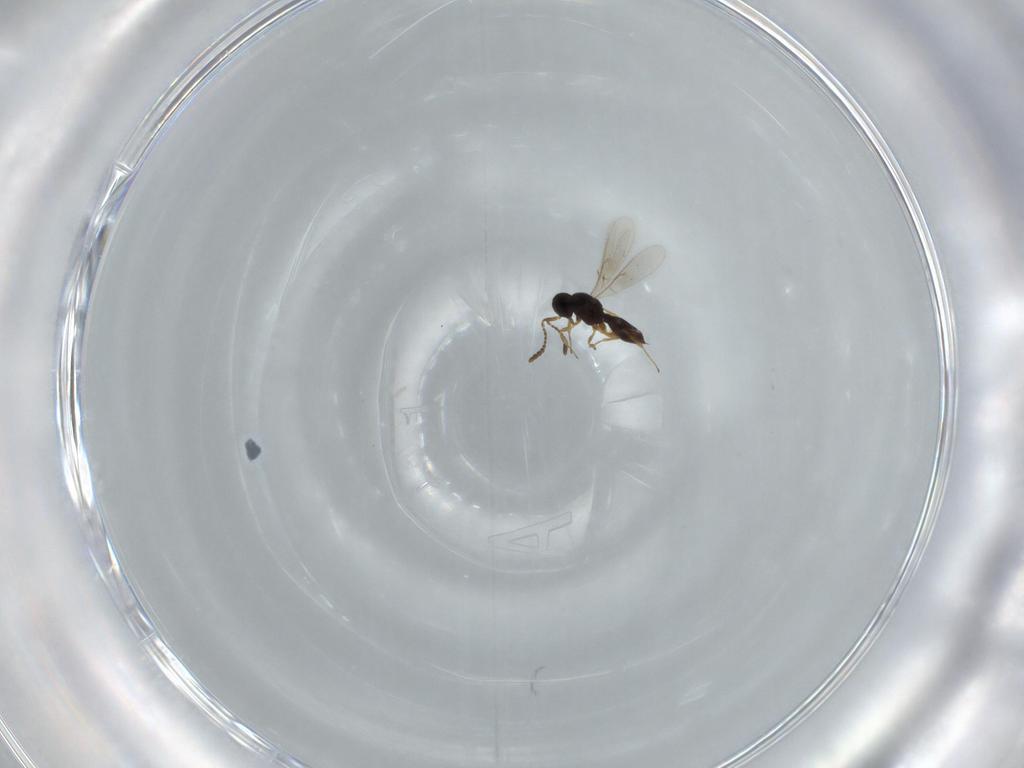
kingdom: Animalia
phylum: Arthropoda
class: Insecta
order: Hymenoptera
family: Scelionidae
